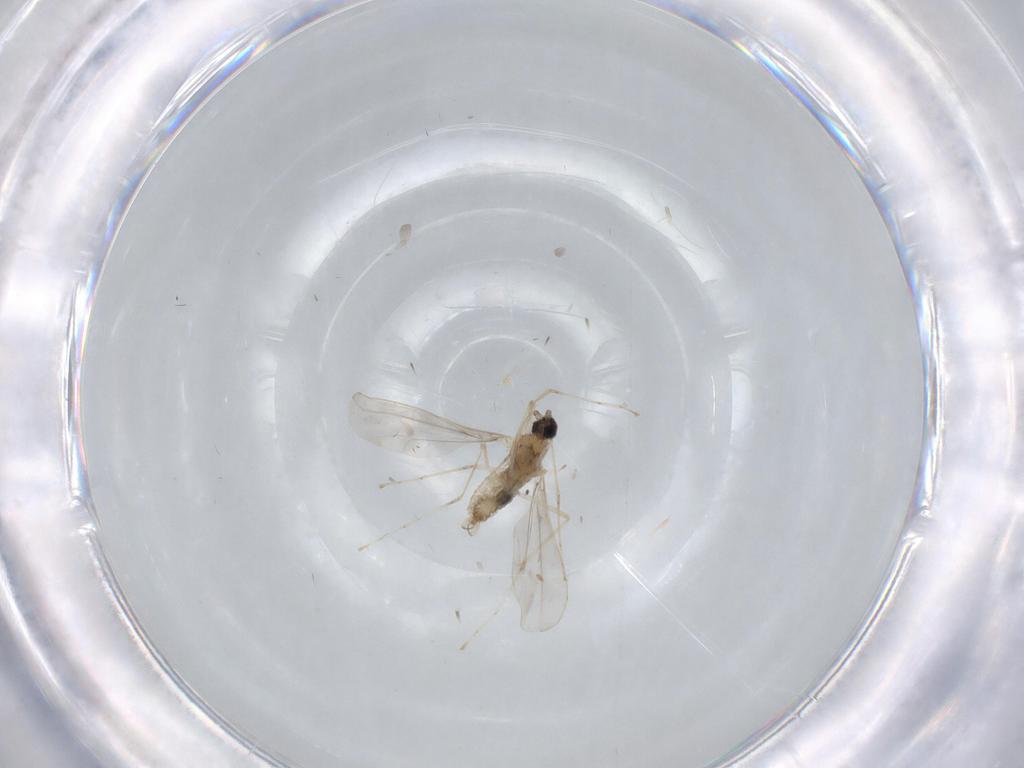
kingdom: Animalia
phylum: Arthropoda
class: Insecta
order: Diptera
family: Cecidomyiidae
